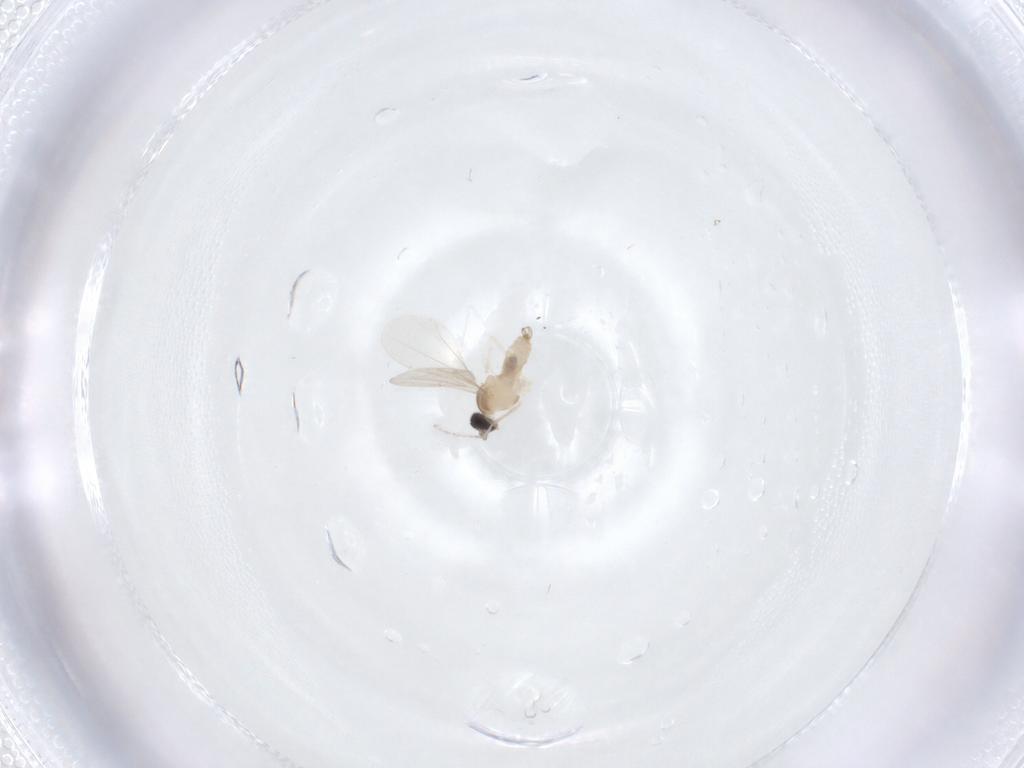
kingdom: Animalia
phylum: Arthropoda
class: Insecta
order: Diptera
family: Cecidomyiidae
